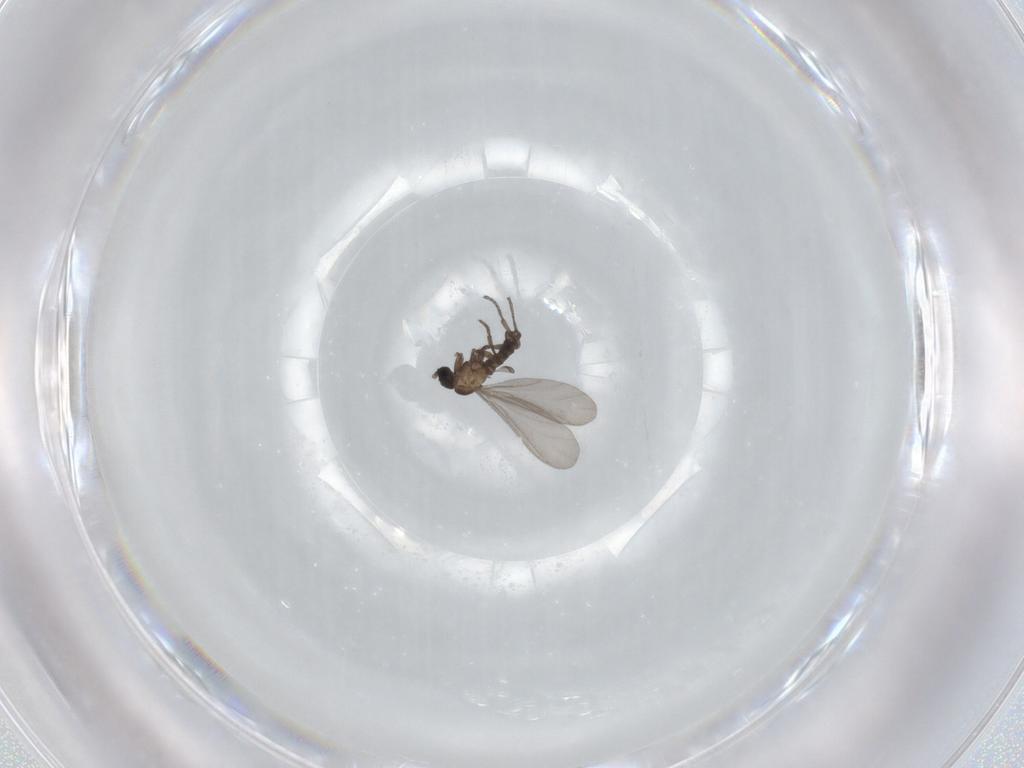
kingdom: Animalia
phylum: Arthropoda
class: Insecta
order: Diptera
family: Sciaridae
